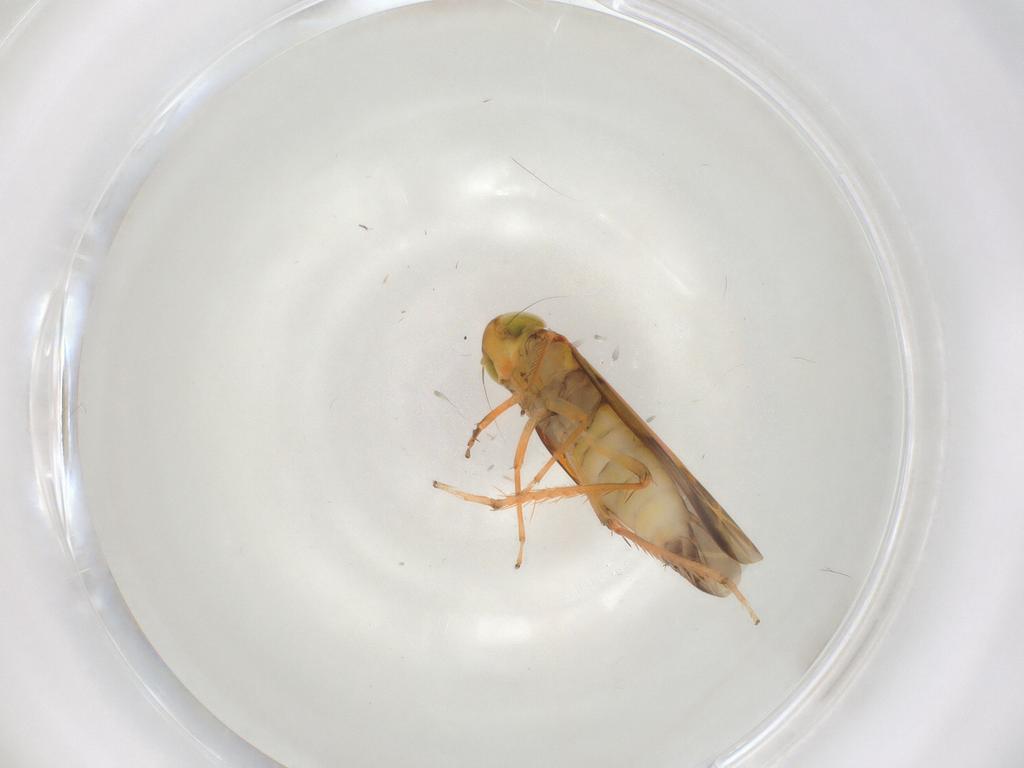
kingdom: Animalia
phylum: Arthropoda
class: Insecta
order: Hemiptera
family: Cicadellidae
